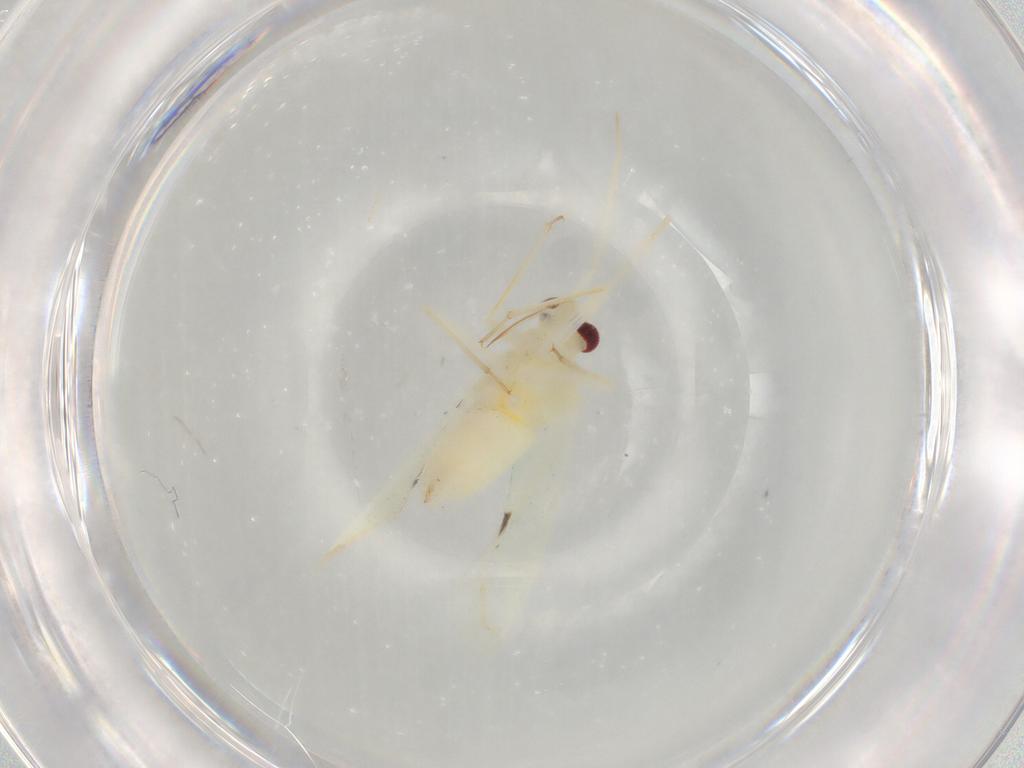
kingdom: Animalia
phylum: Arthropoda
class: Insecta
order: Hemiptera
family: Miridae
